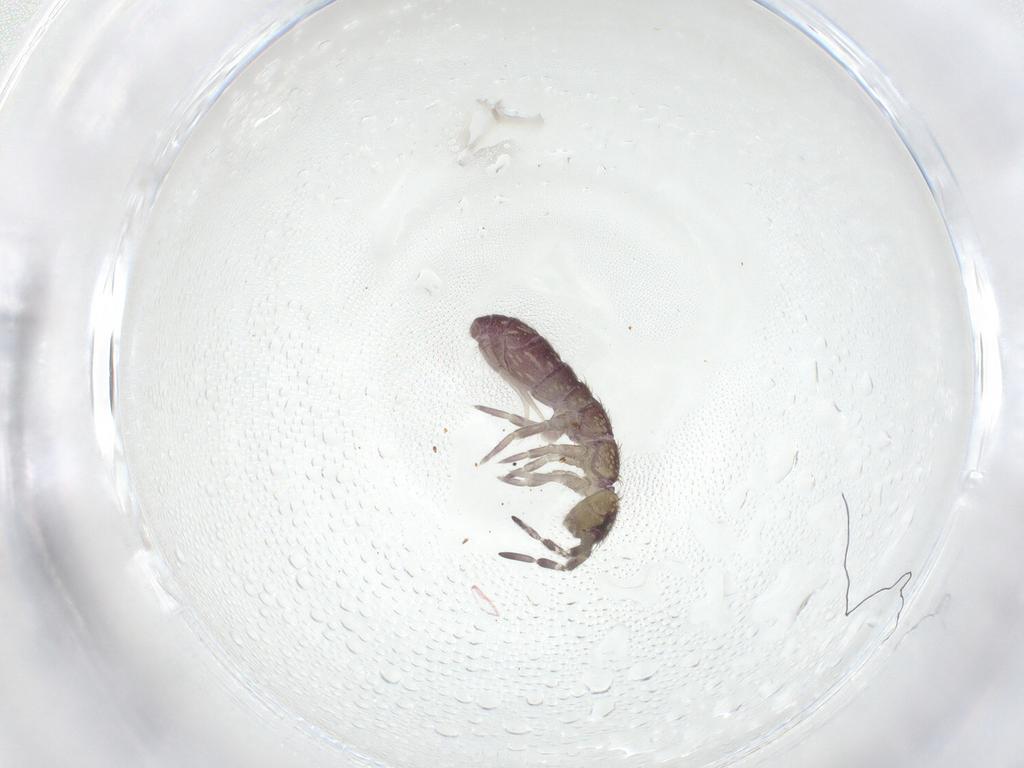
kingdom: Animalia
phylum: Arthropoda
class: Collembola
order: Entomobryomorpha
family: Isotomidae
